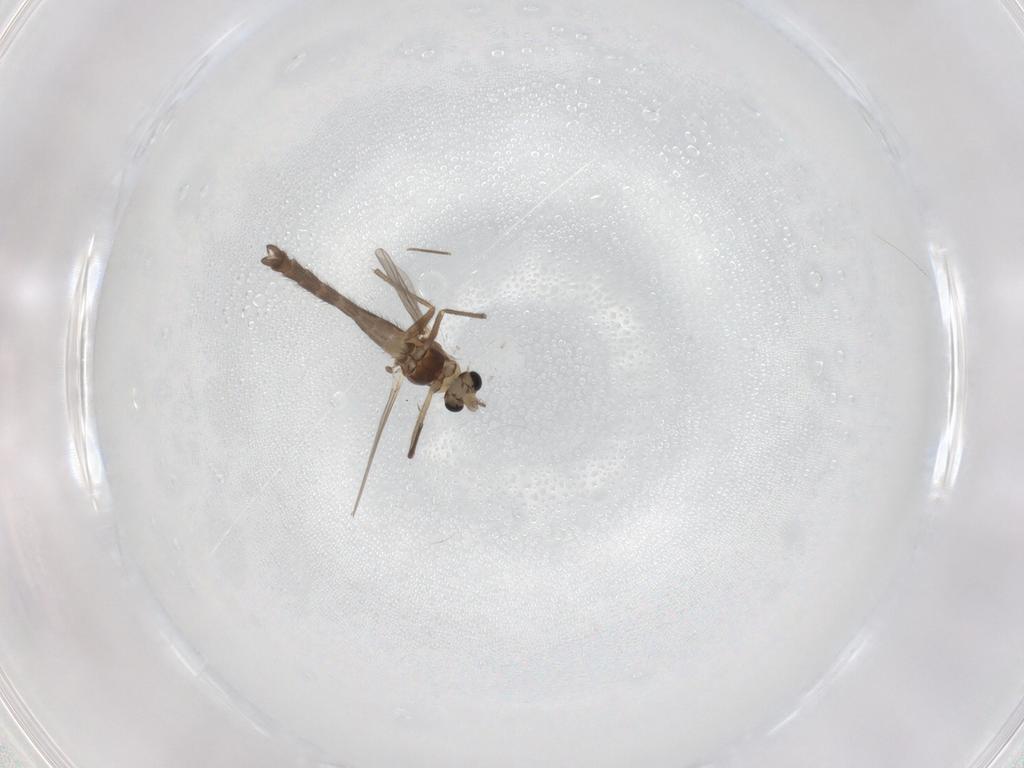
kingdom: Animalia
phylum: Arthropoda
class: Insecta
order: Diptera
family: Chironomidae
